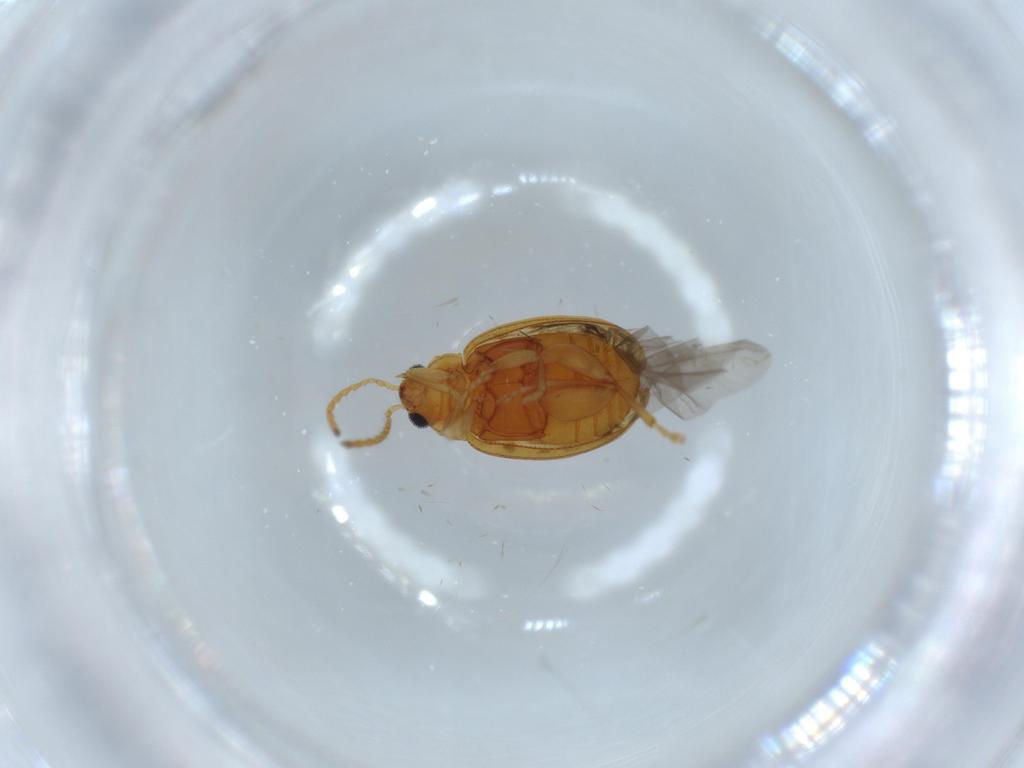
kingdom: Animalia
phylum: Arthropoda
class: Insecta
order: Coleoptera
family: Chrysomelidae
